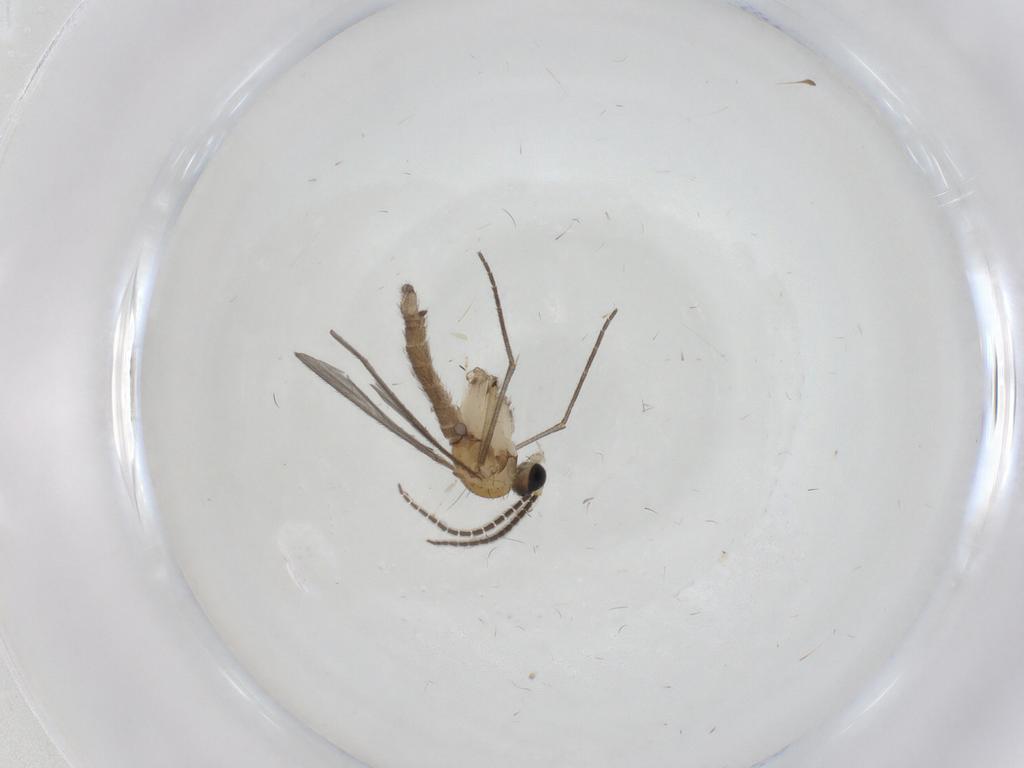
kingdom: Animalia
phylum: Arthropoda
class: Insecta
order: Diptera
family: Sciaridae
